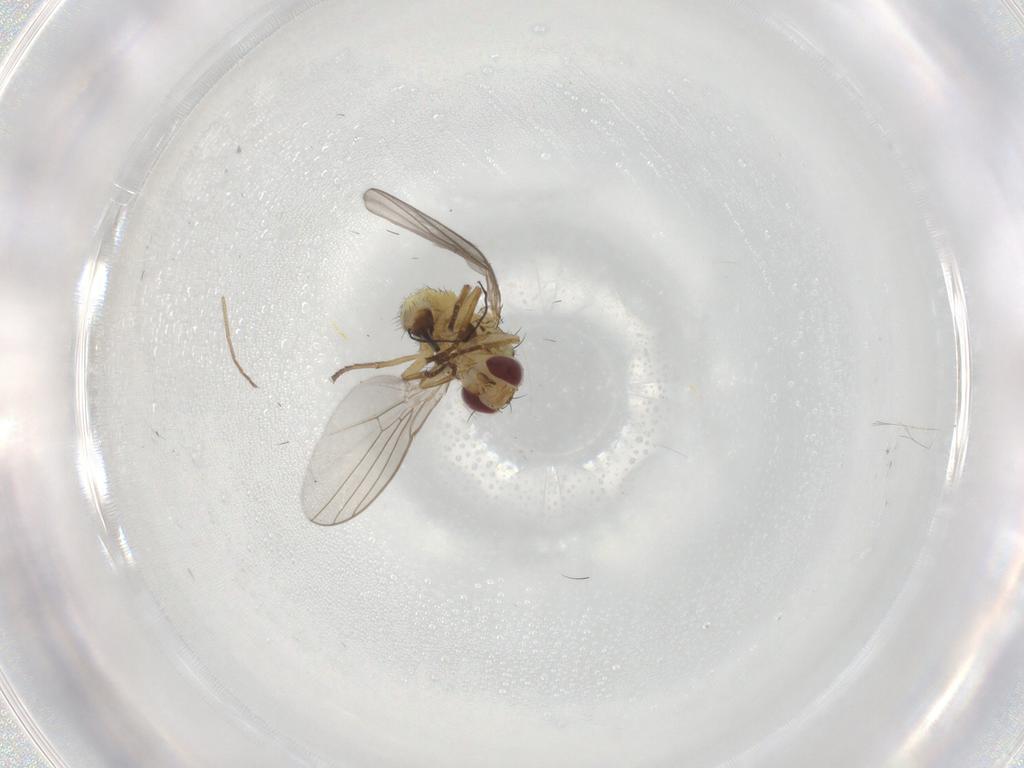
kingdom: Animalia
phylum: Arthropoda
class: Insecta
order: Diptera
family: Agromyzidae
